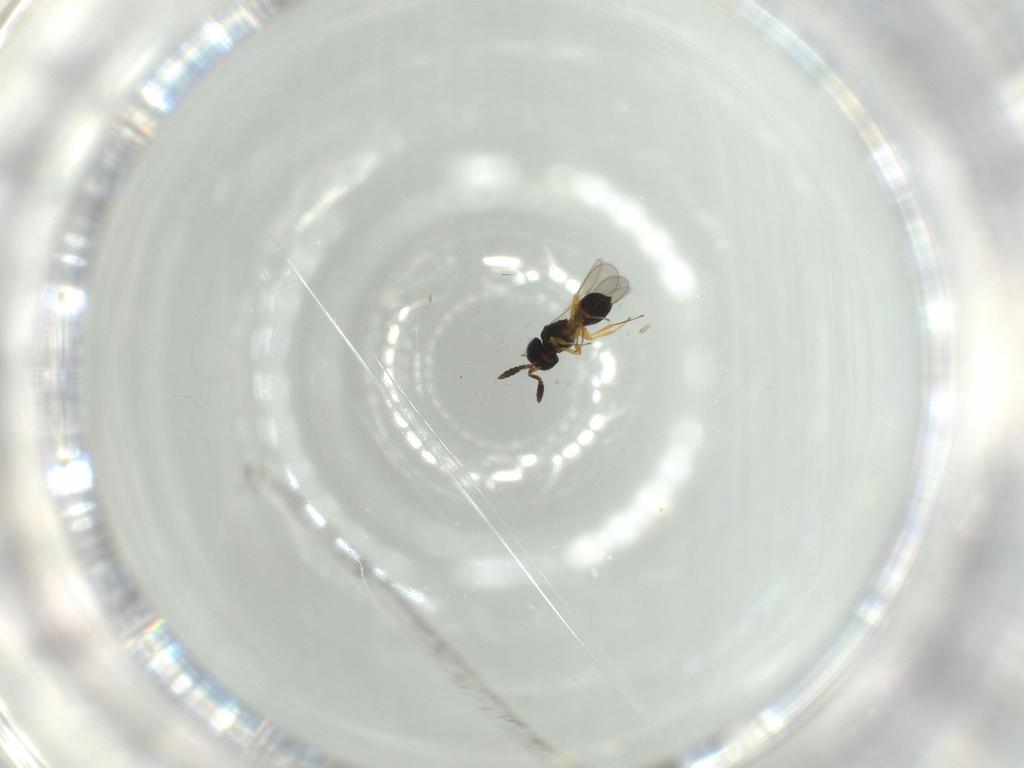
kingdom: Animalia
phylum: Arthropoda
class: Insecta
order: Hymenoptera
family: Scelionidae
